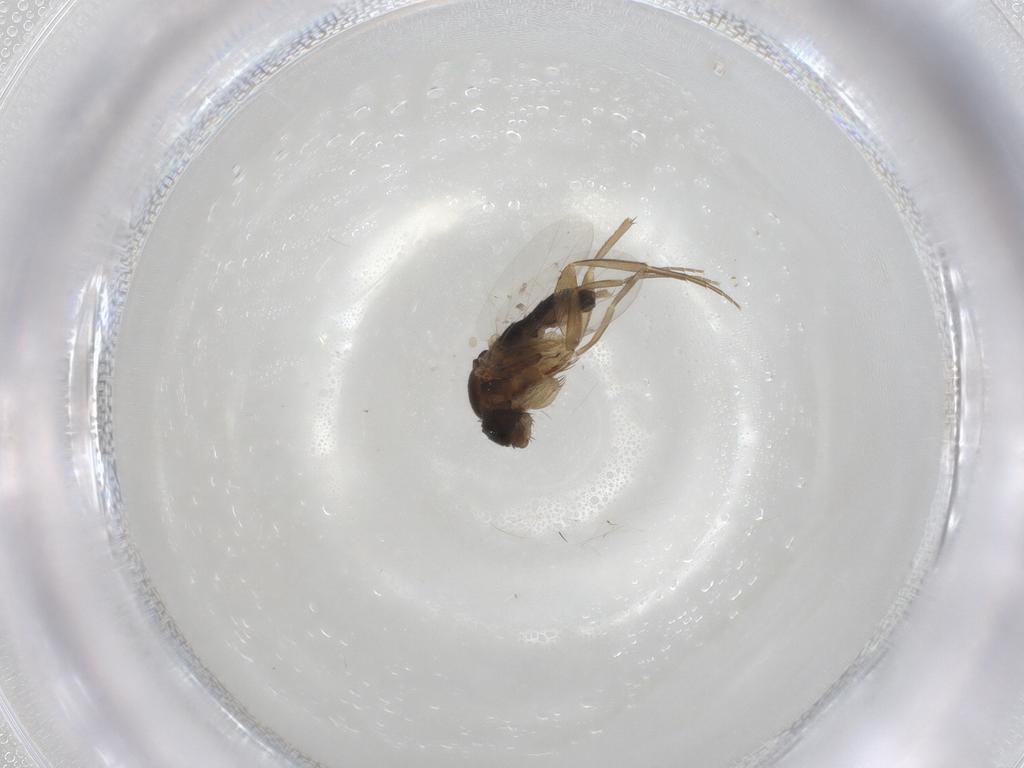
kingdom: Animalia
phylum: Arthropoda
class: Insecta
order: Diptera
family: Phoridae
